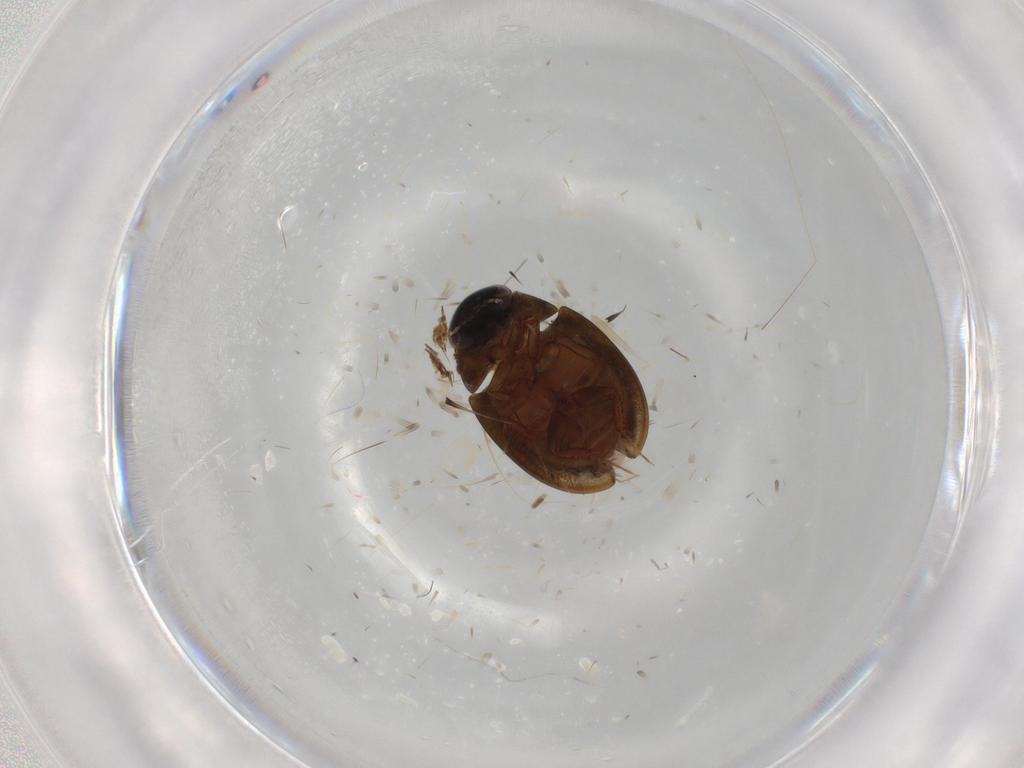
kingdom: Animalia
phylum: Arthropoda
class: Insecta
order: Coleoptera
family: Hydrophilidae
